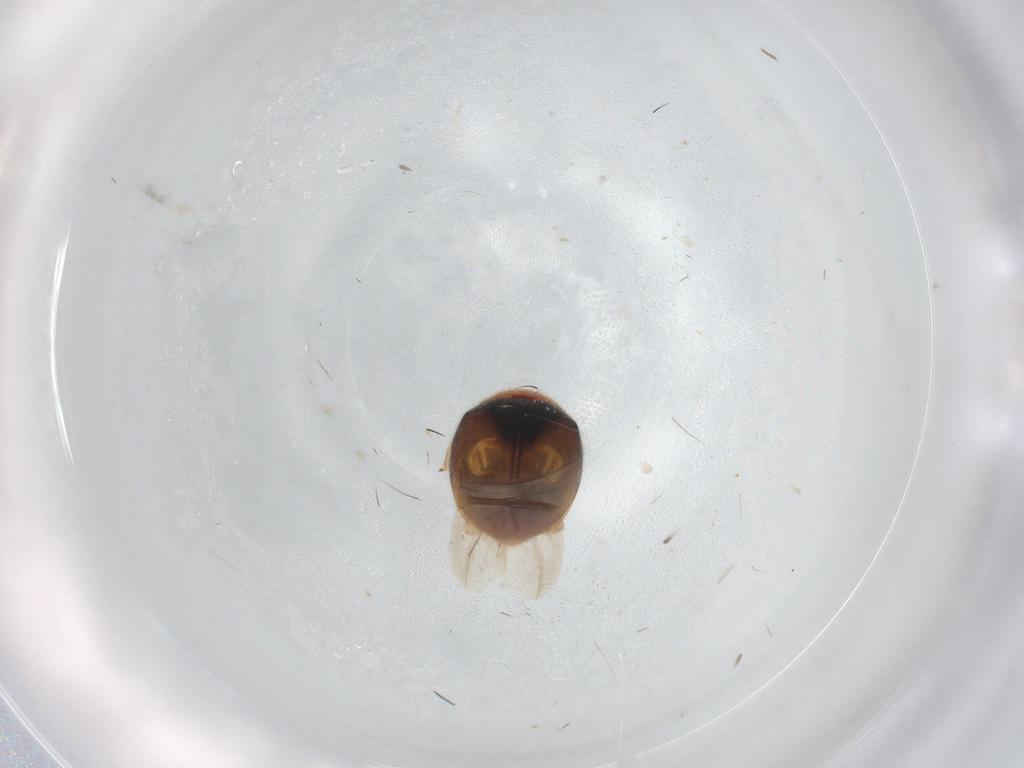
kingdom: Animalia
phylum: Arthropoda
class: Insecta
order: Coleoptera
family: Coccinellidae
